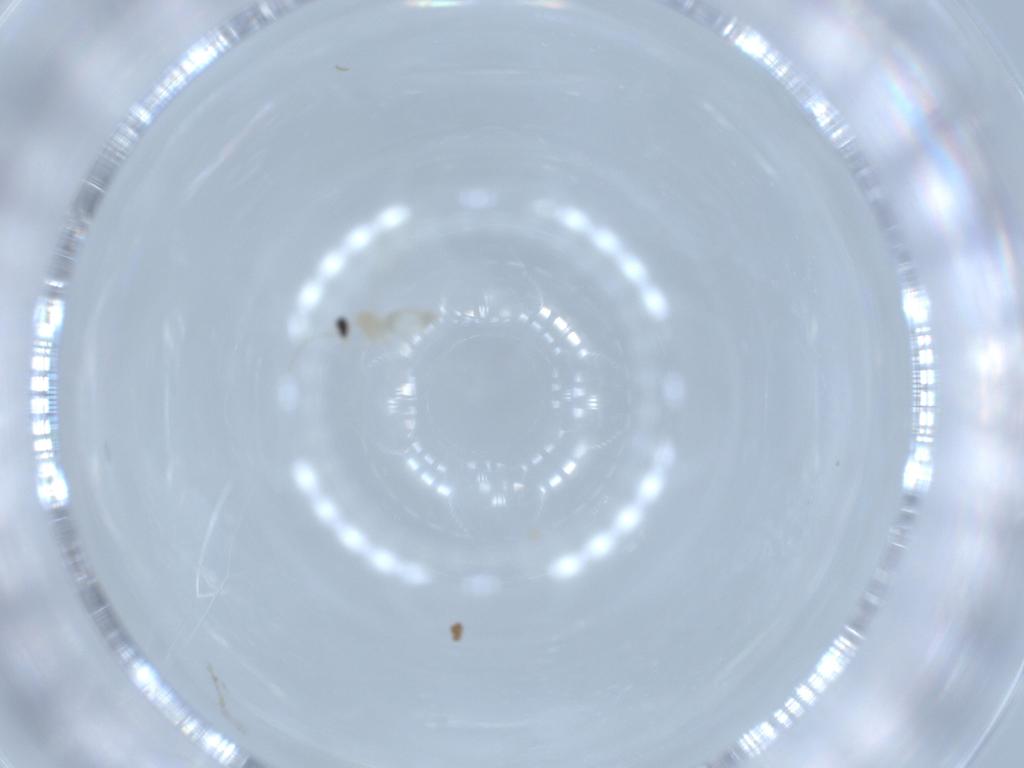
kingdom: Animalia
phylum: Arthropoda
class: Insecta
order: Diptera
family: Cecidomyiidae
